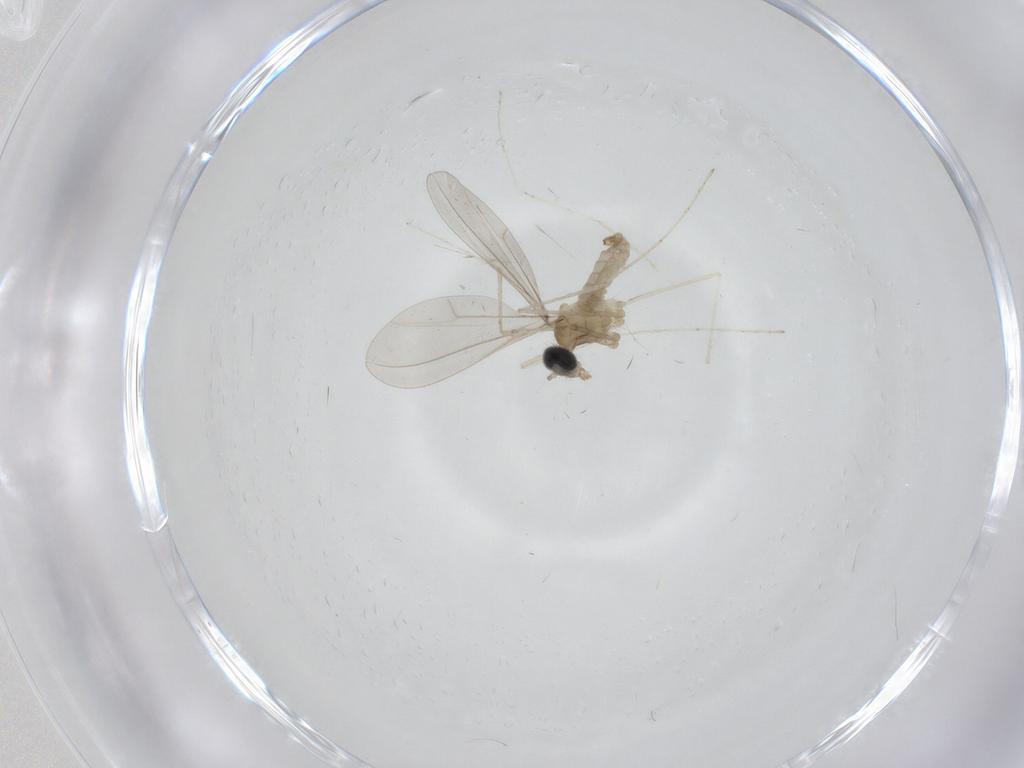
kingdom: Animalia
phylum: Arthropoda
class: Insecta
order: Diptera
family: Cecidomyiidae
